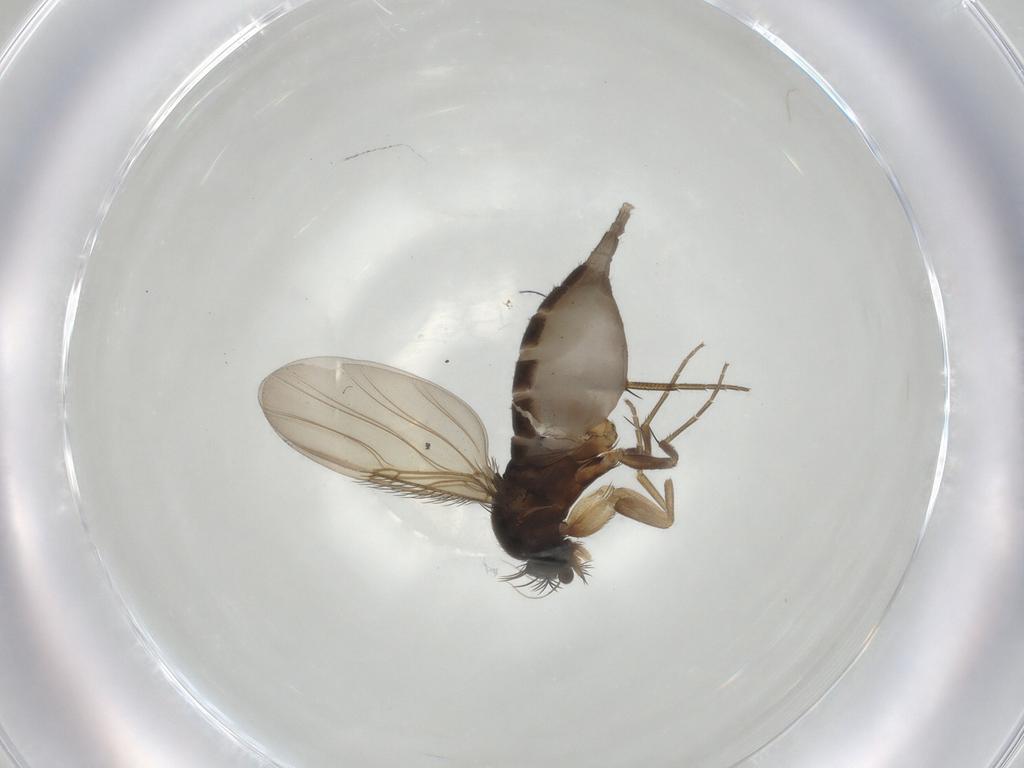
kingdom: Animalia
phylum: Arthropoda
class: Insecta
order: Diptera
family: Phoridae
